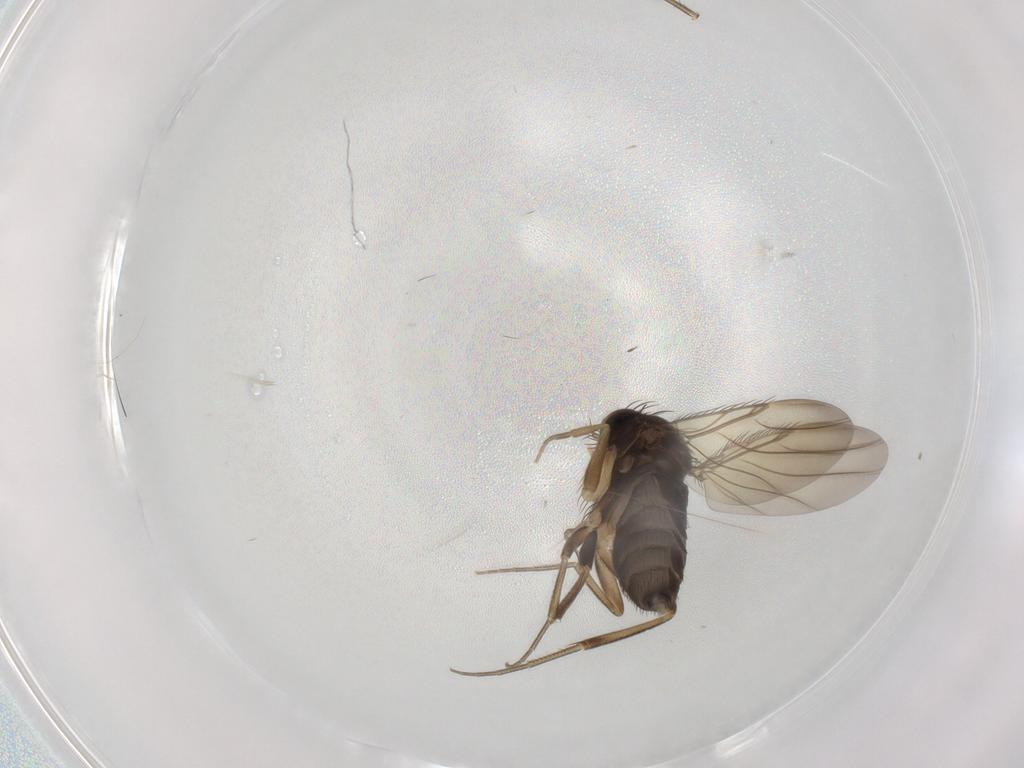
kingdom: Animalia
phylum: Arthropoda
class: Insecta
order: Diptera
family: Phoridae
